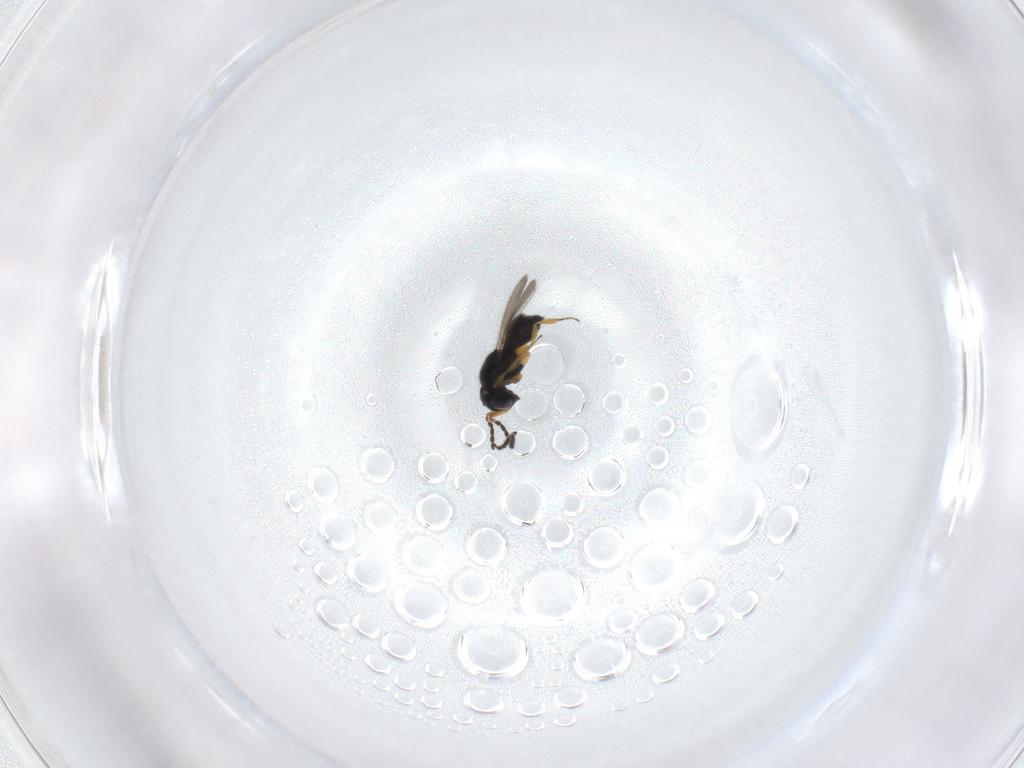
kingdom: Animalia
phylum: Arthropoda
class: Insecta
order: Hymenoptera
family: Scelionidae
